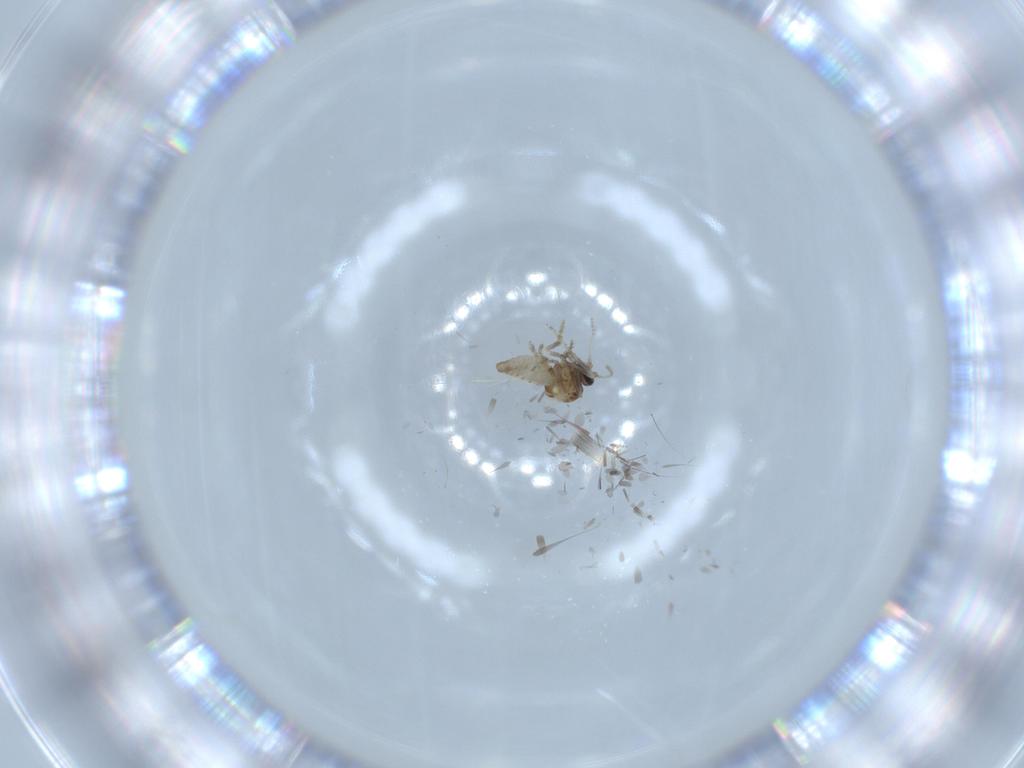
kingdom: Animalia
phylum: Arthropoda
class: Insecta
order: Diptera
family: Ceratopogonidae
